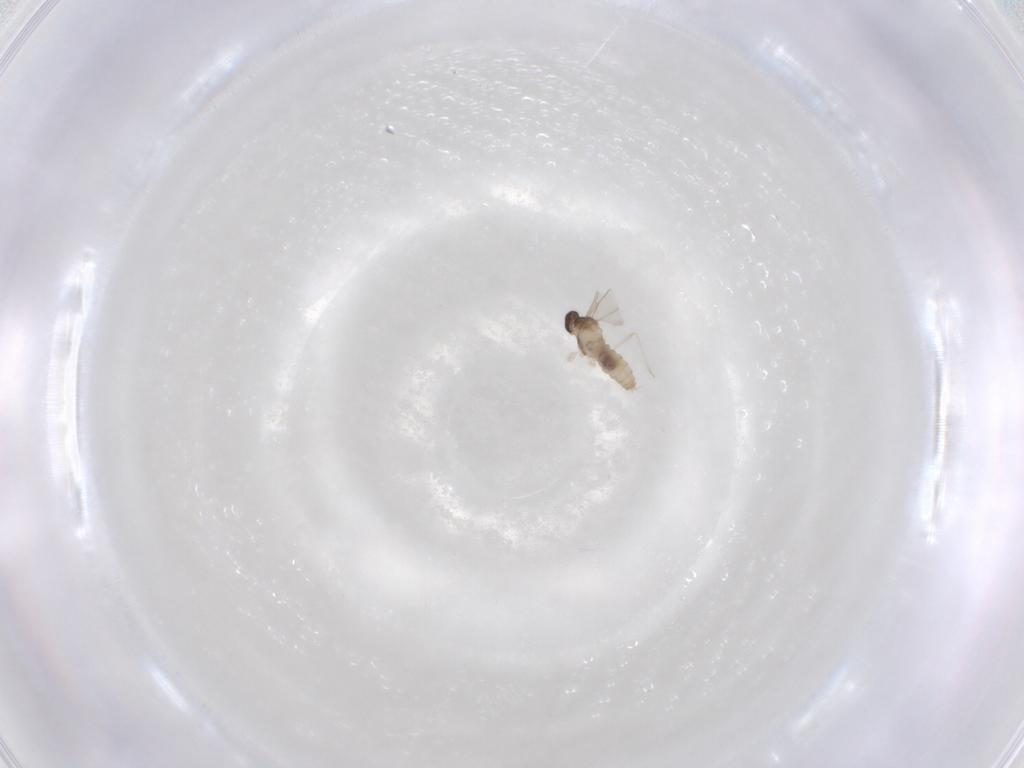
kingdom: Animalia
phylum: Arthropoda
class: Insecta
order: Diptera
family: Cecidomyiidae
